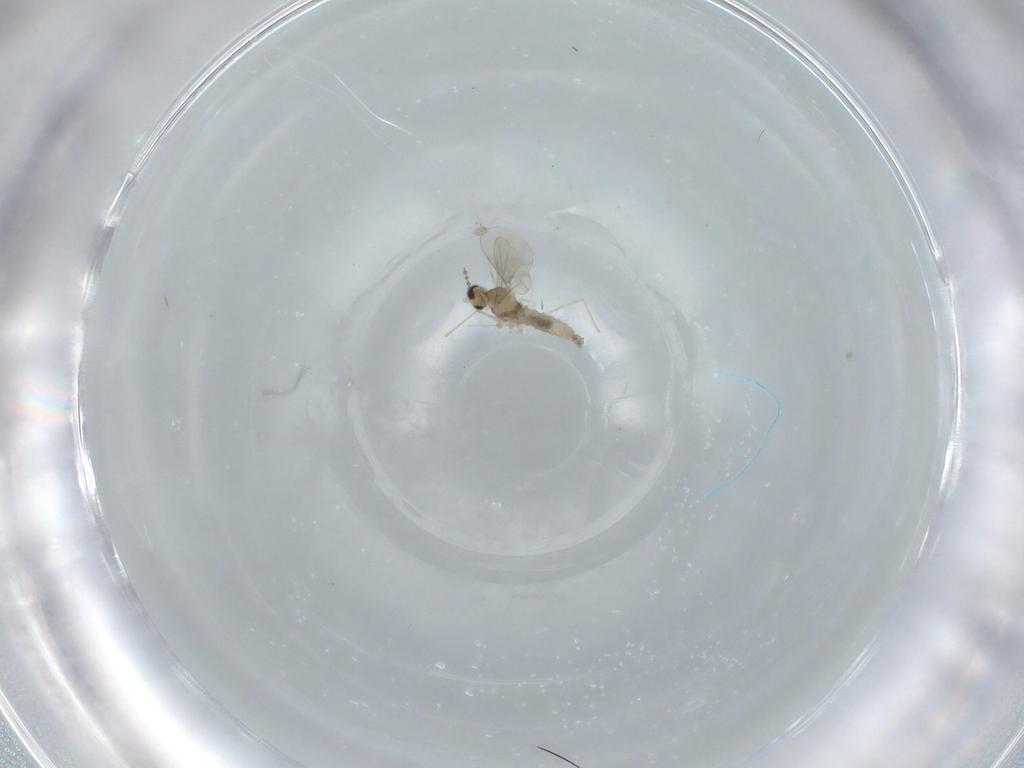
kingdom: Animalia
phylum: Arthropoda
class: Insecta
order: Diptera
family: Cecidomyiidae
